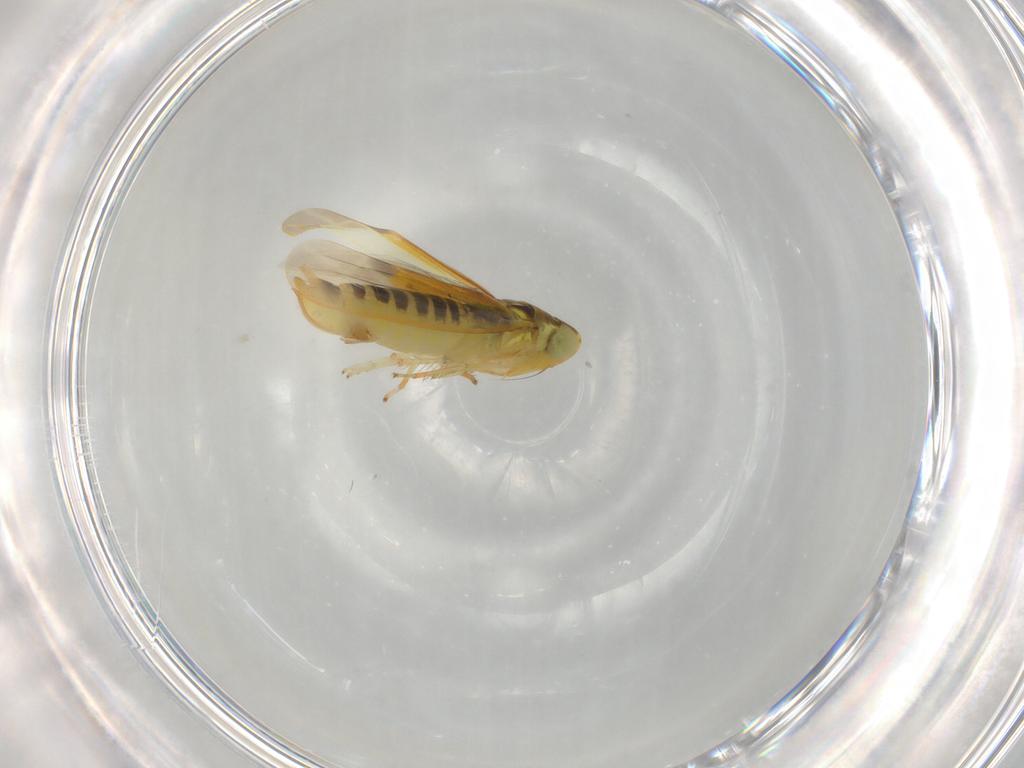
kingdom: Animalia
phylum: Arthropoda
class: Insecta
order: Hemiptera
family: Cicadellidae
